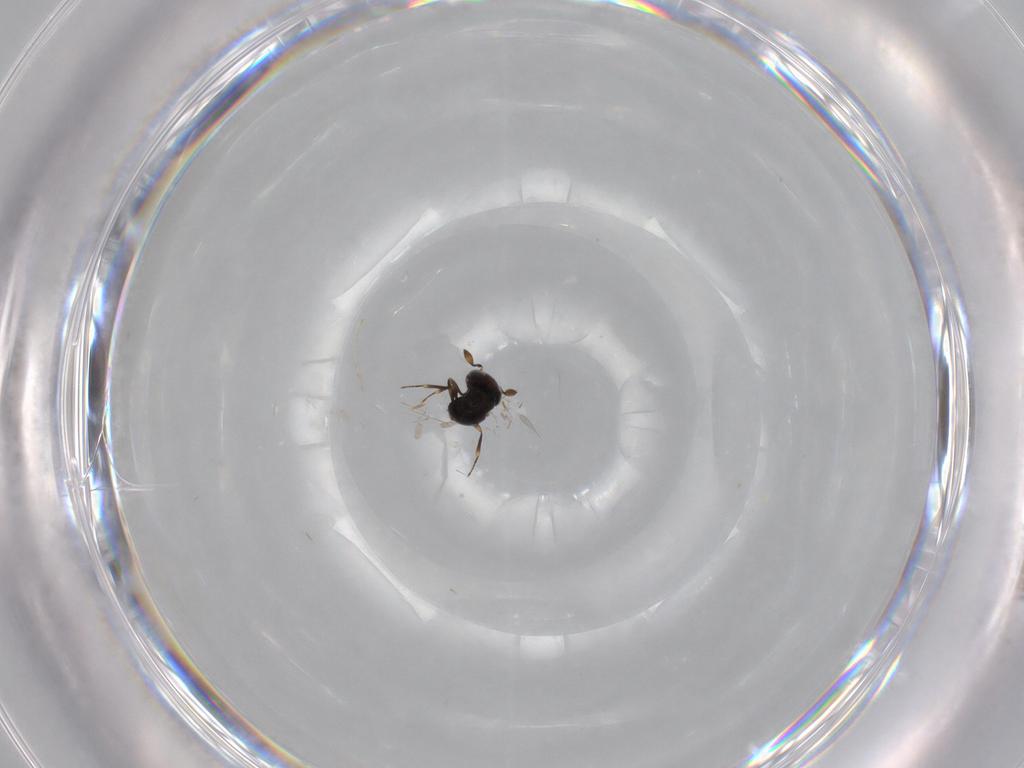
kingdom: Animalia
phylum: Arthropoda
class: Insecta
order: Hymenoptera
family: Scelionidae
